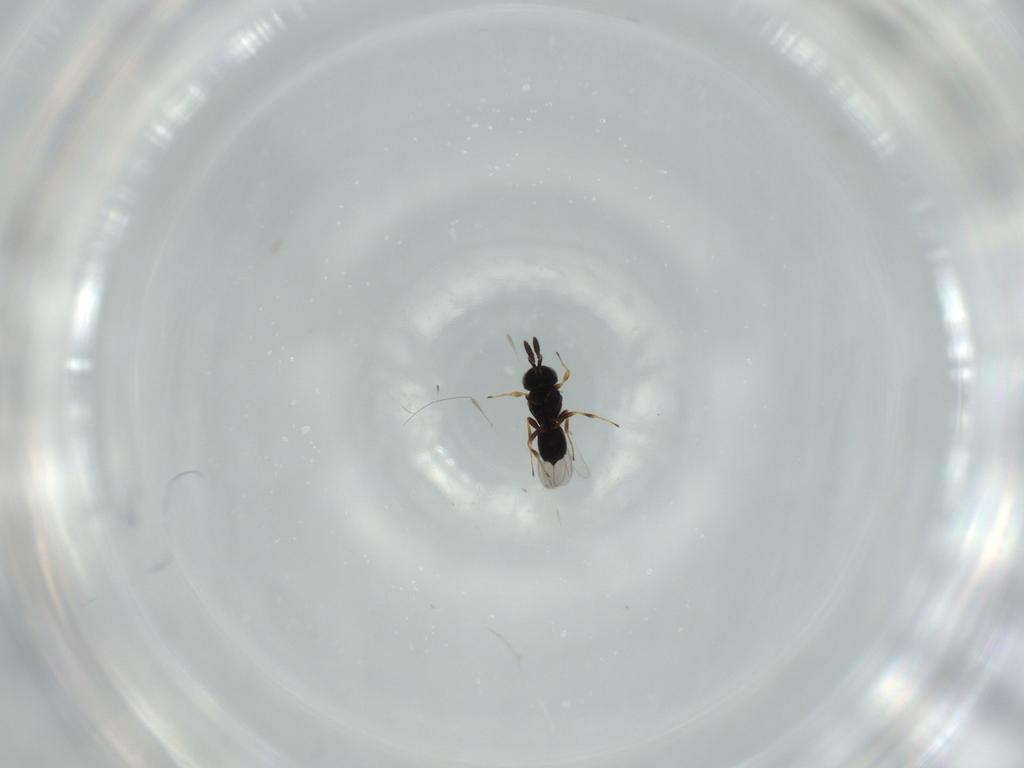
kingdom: Animalia
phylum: Arthropoda
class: Insecta
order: Hymenoptera
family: Scelionidae
